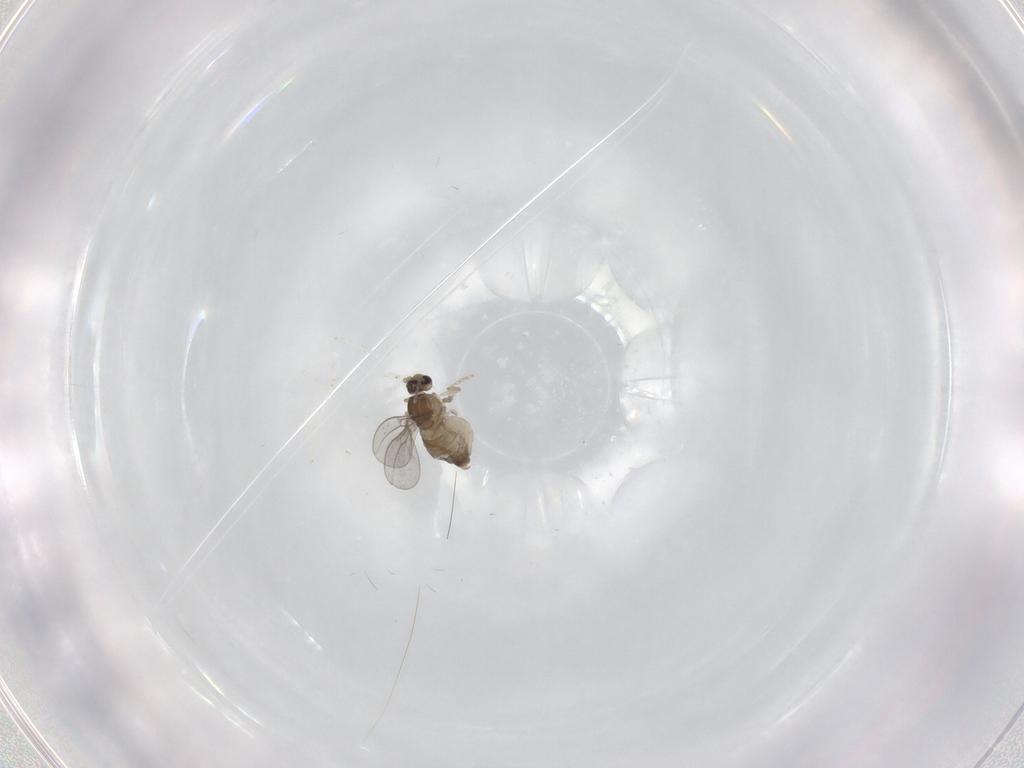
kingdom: Animalia
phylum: Arthropoda
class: Insecta
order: Diptera
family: Cecidomyiidae
